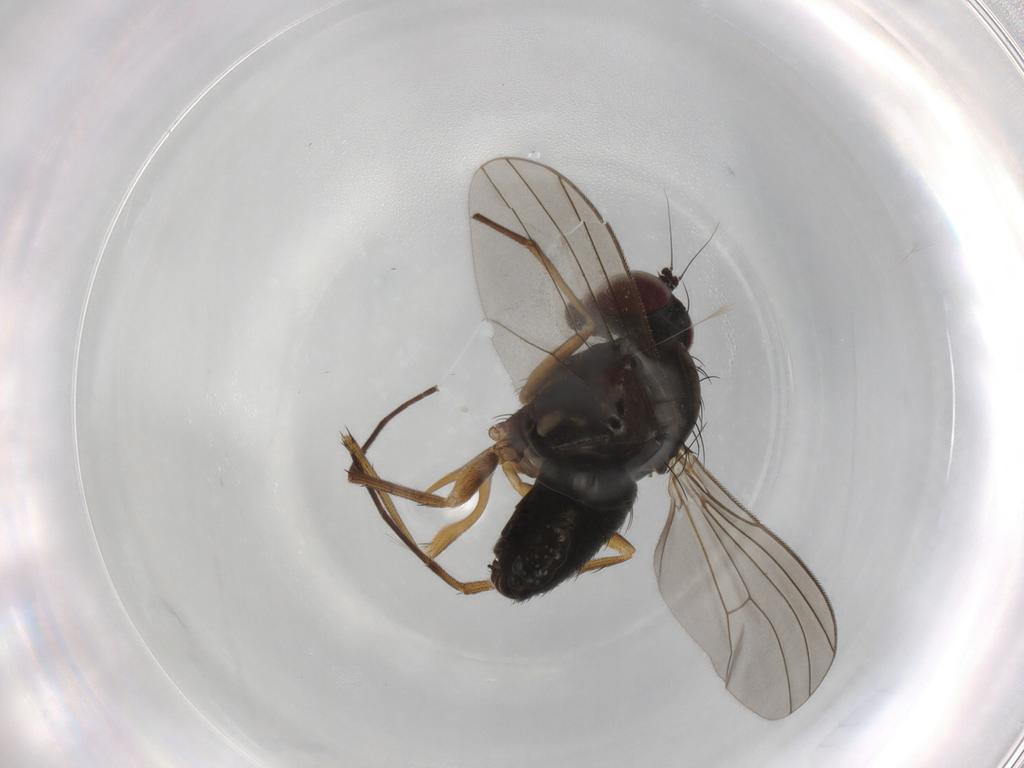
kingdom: Animalia
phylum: Arthropoda
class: Insecta
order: Diptera
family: Dolichopodidae
